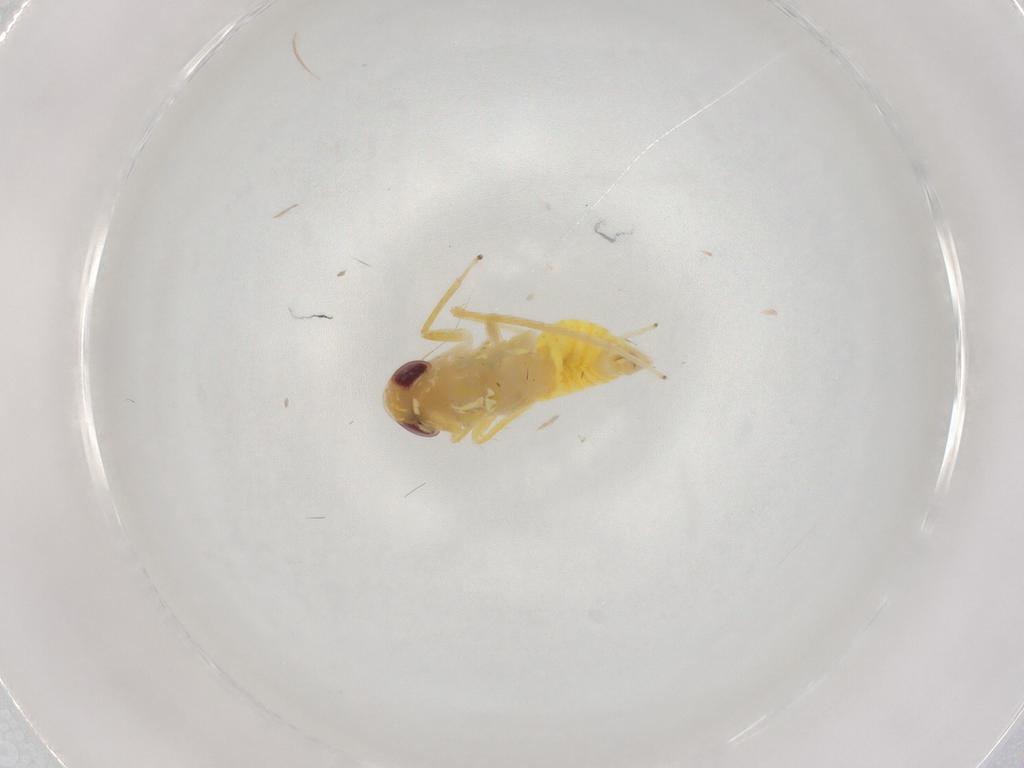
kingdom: Animalia
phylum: Arthropoda
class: Insecta
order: Hemiptera
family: Cicadellidae
